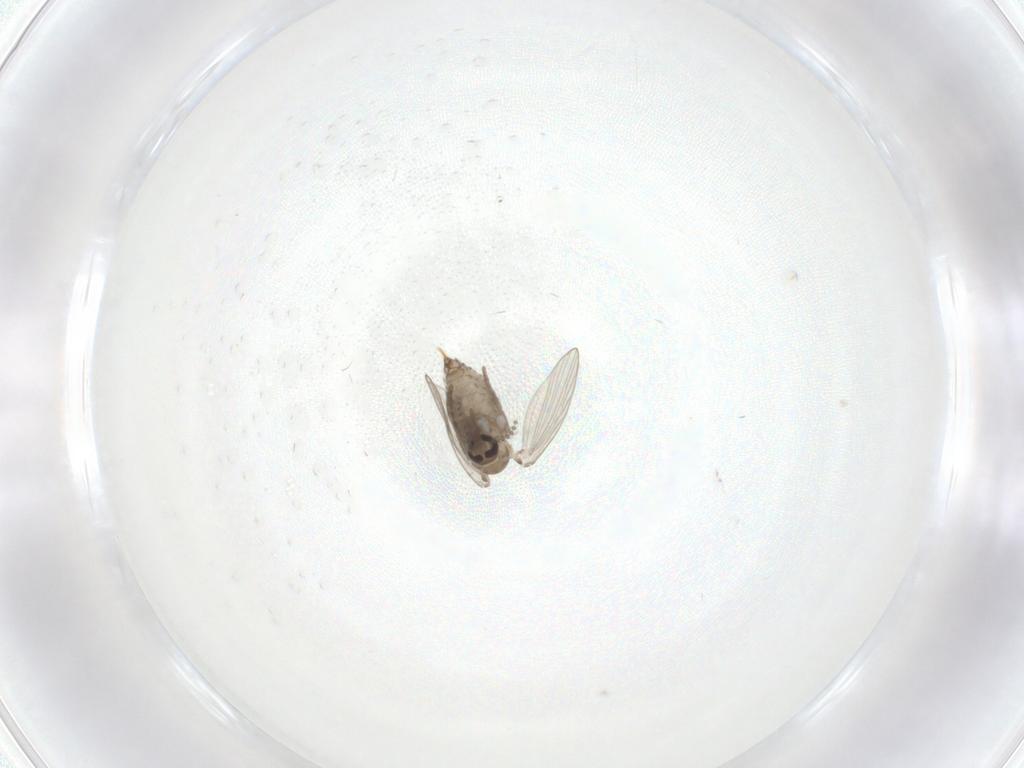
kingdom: Animalia
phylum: Arthropoda
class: Insecta
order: Diptera
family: Psychodidae
